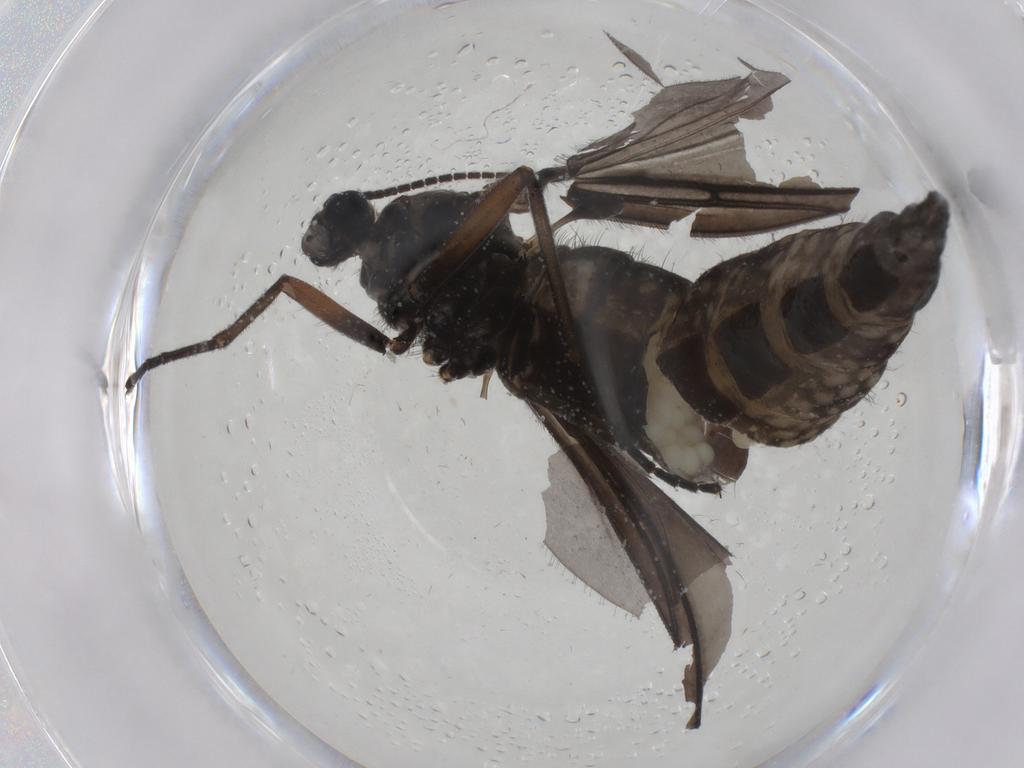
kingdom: Animalia
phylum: Arthropoda
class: Insecta
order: Diptera
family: Sciaridae
